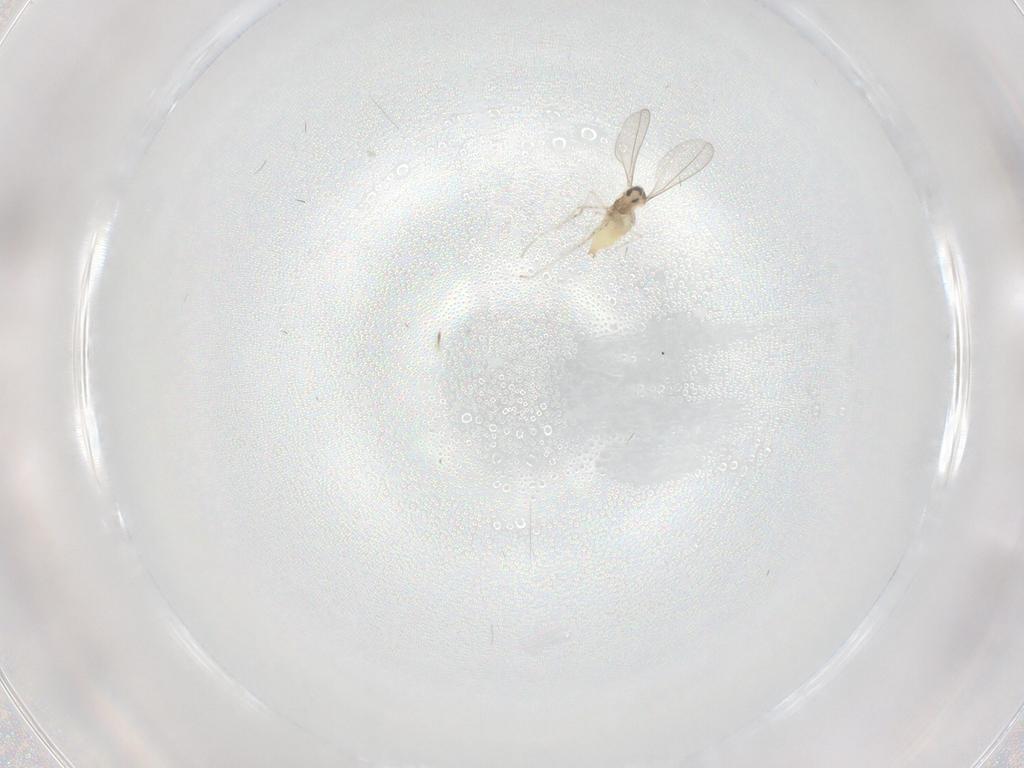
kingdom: Animalia
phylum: Arthropoda
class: Insecta
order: Diptera
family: Cecidomyiidae
